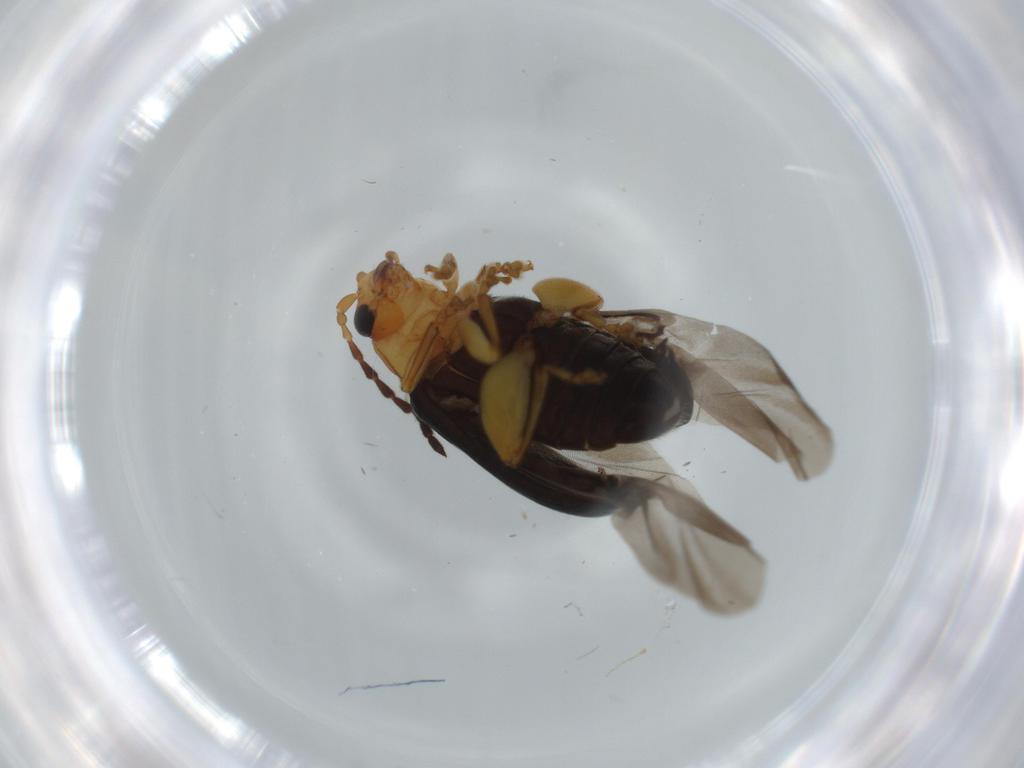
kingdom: Animalia
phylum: Arthropoda
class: Insecta
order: Coleoptera
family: Chrysomelidae
